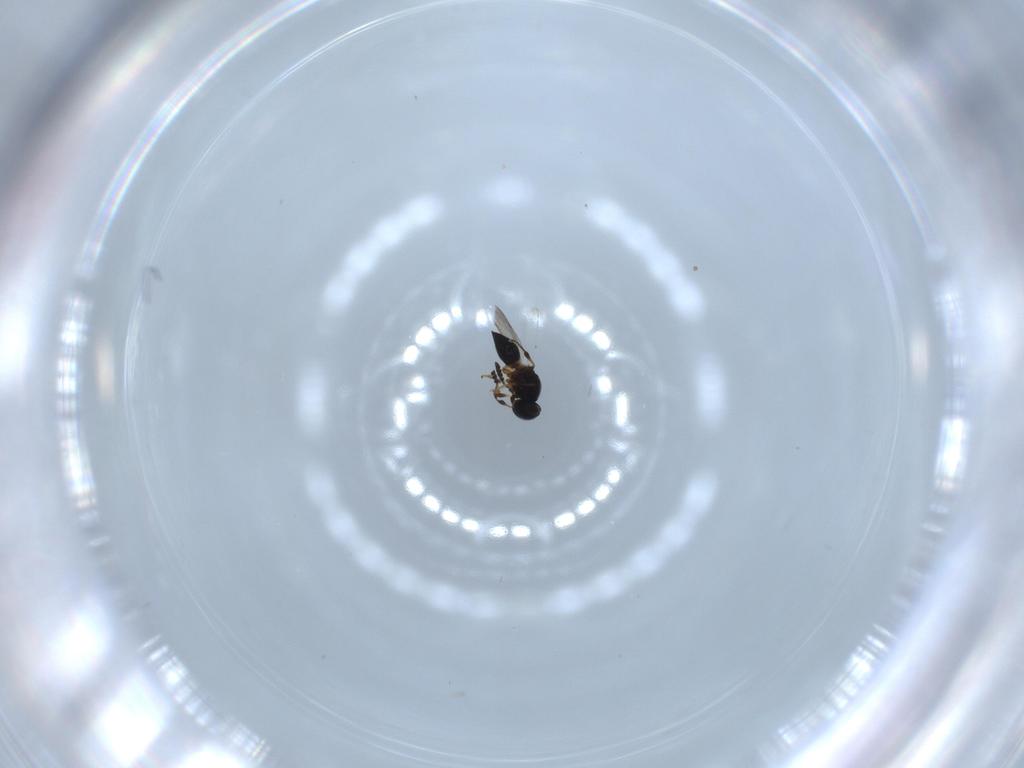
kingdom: Animalia
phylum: Arthropoda
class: Insecta
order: Hymenoptera
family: Platygastridae
